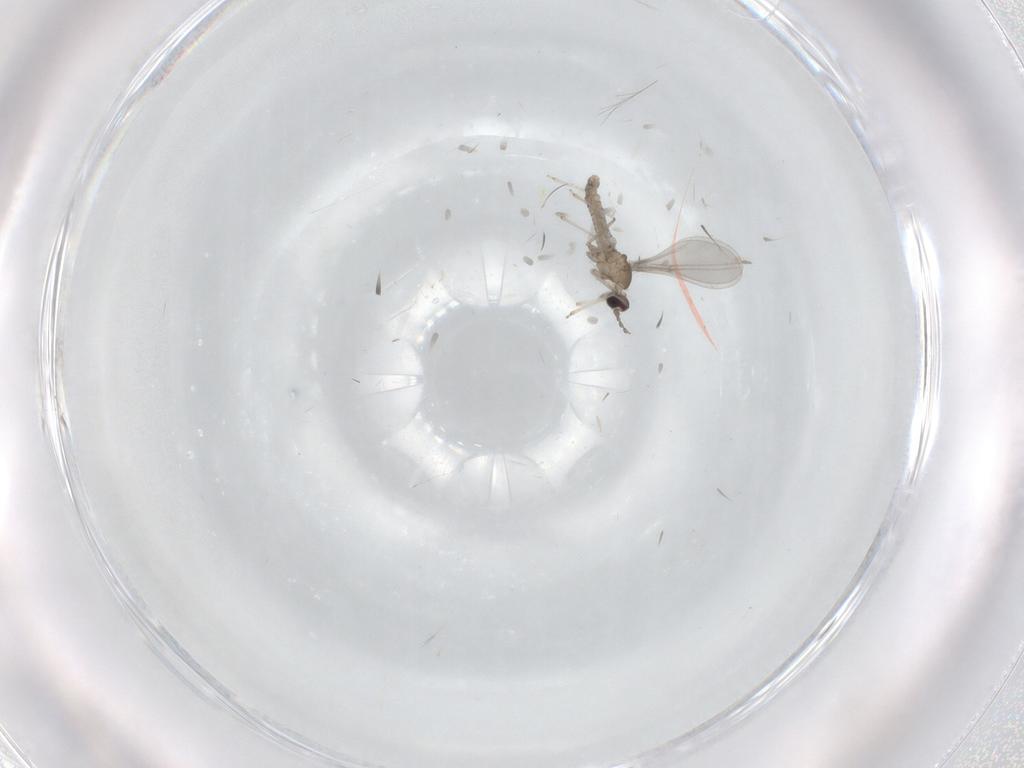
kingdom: Animalia
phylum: Arthropoda
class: Insecta
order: Diptera
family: Cecidomyiidae
